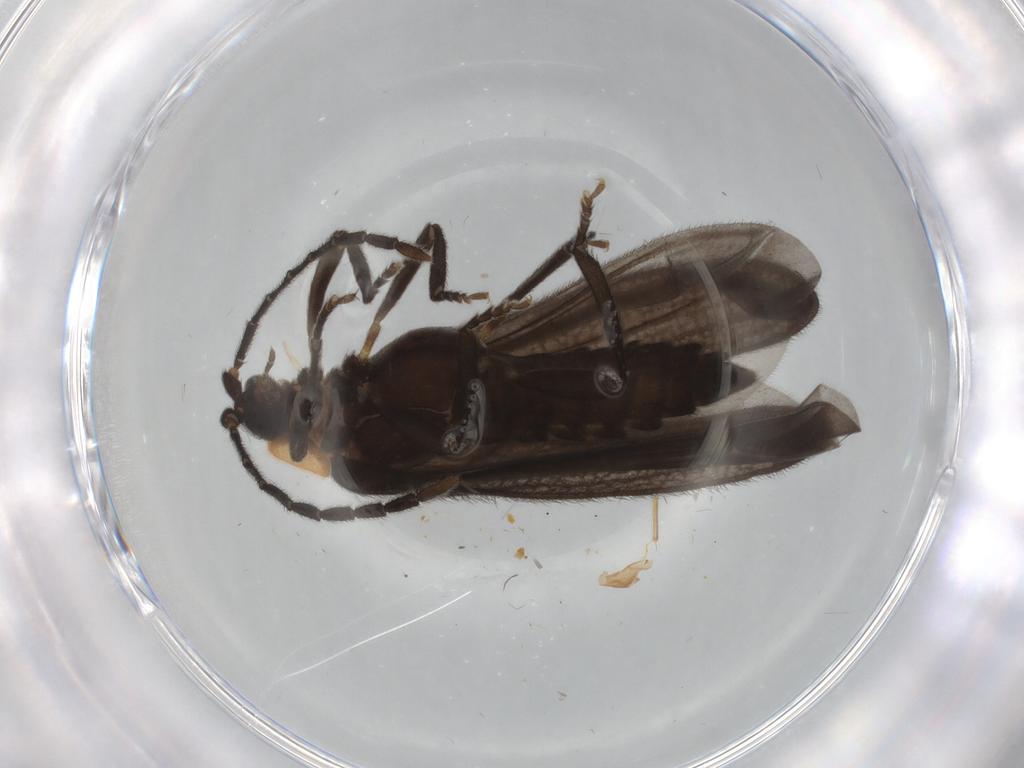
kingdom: Animalia
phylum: Arthropoda
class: Insecta
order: Coleoptera
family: Lycidae
